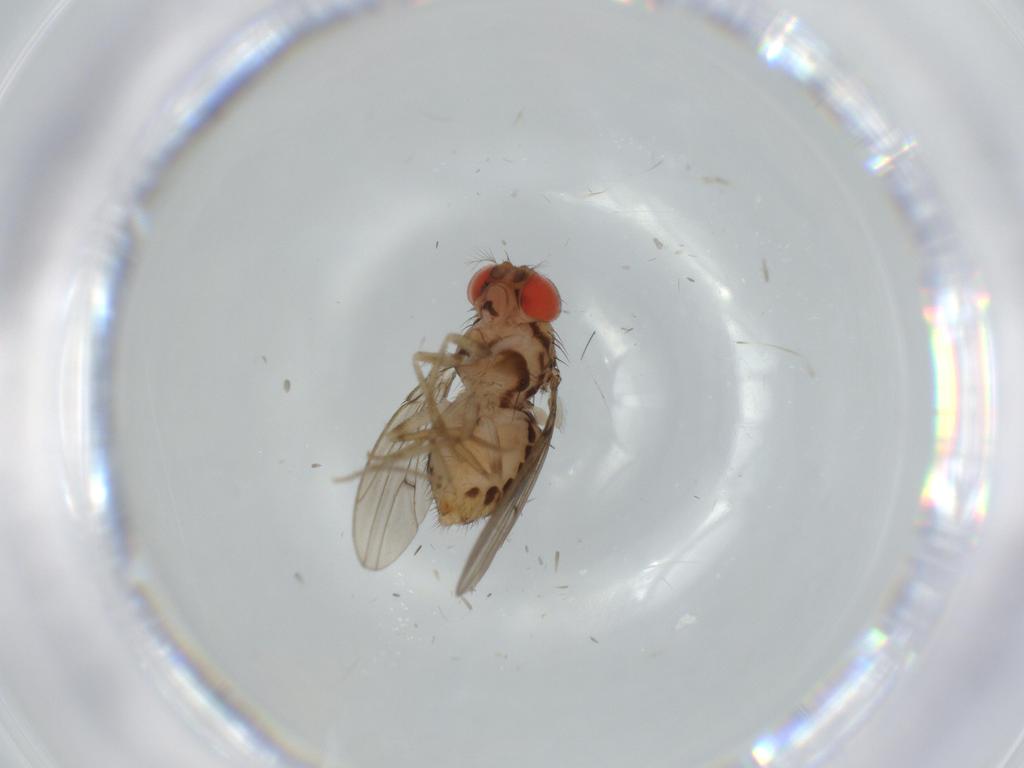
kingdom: Animalia
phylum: Arthropoda
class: Insecta
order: Diptera
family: Drosophilidae
